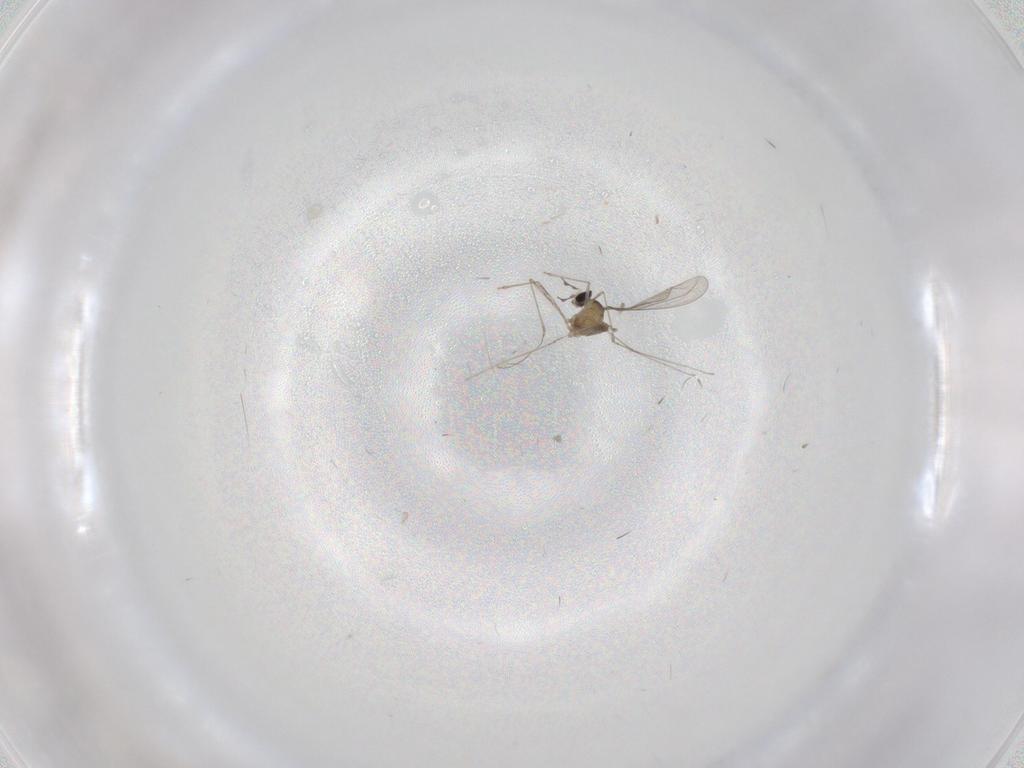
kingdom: Animalia
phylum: Arthropoda
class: Insecta
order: Diptera
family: Cecidomyiidae
